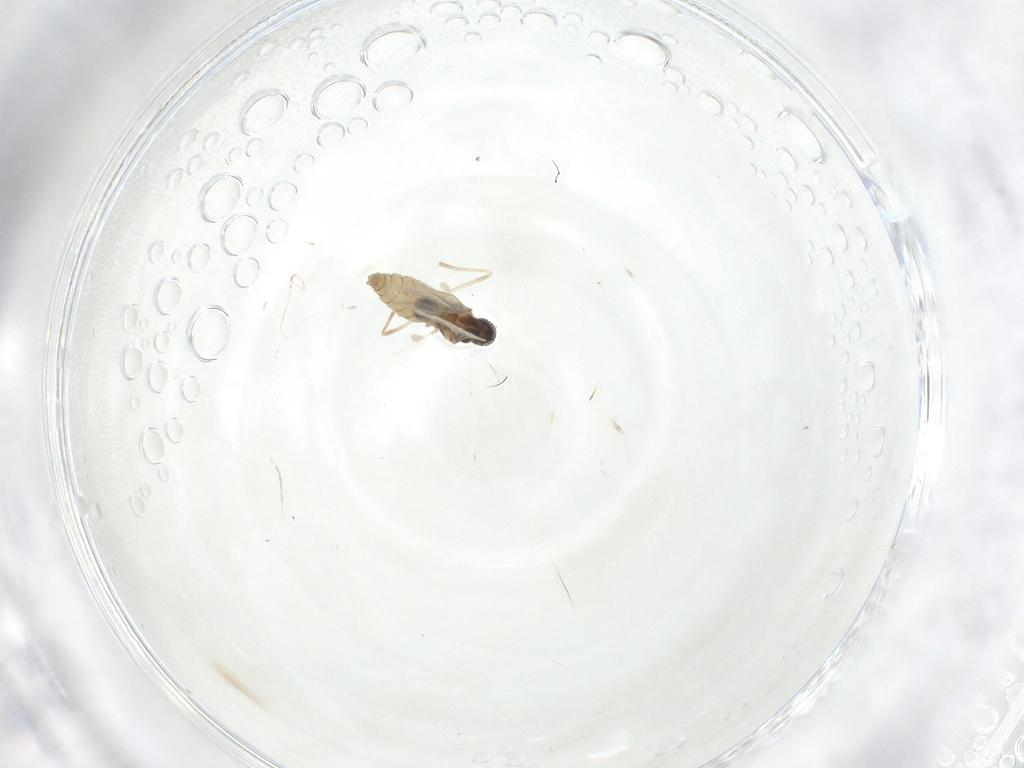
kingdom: Animalia
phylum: Arthropoda
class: Insecta
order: Diptera
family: Cecidomyiidae
